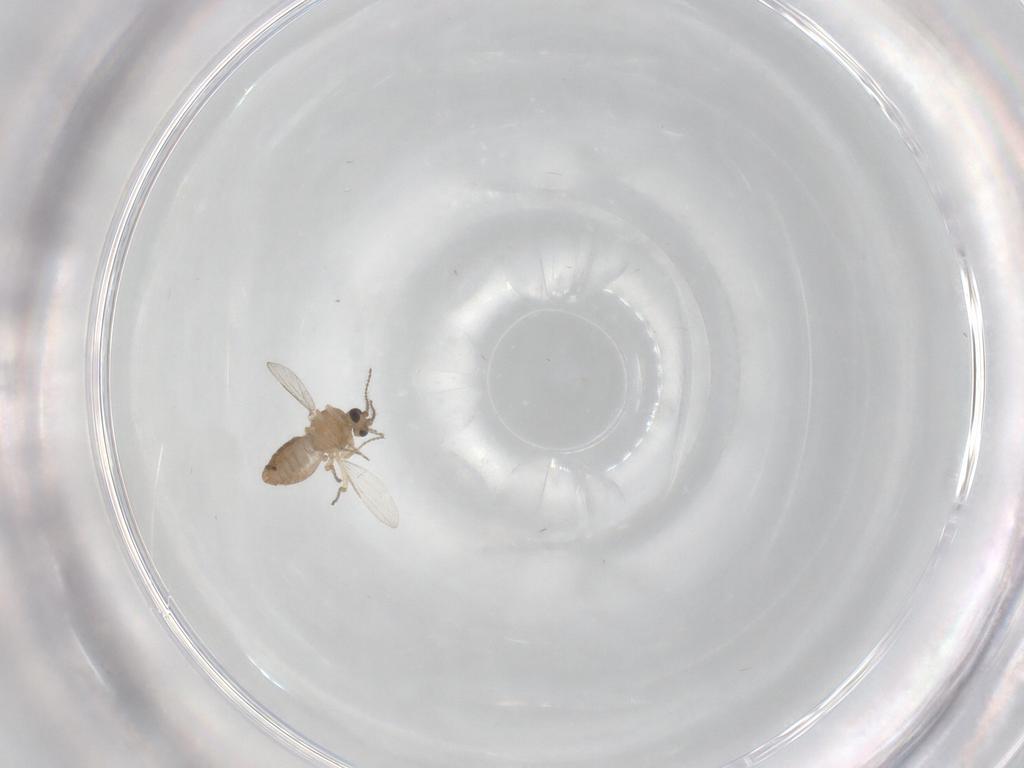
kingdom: Animalia
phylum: Arthropoda
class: Insecta
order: Diptera
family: Ceratopogonidae
